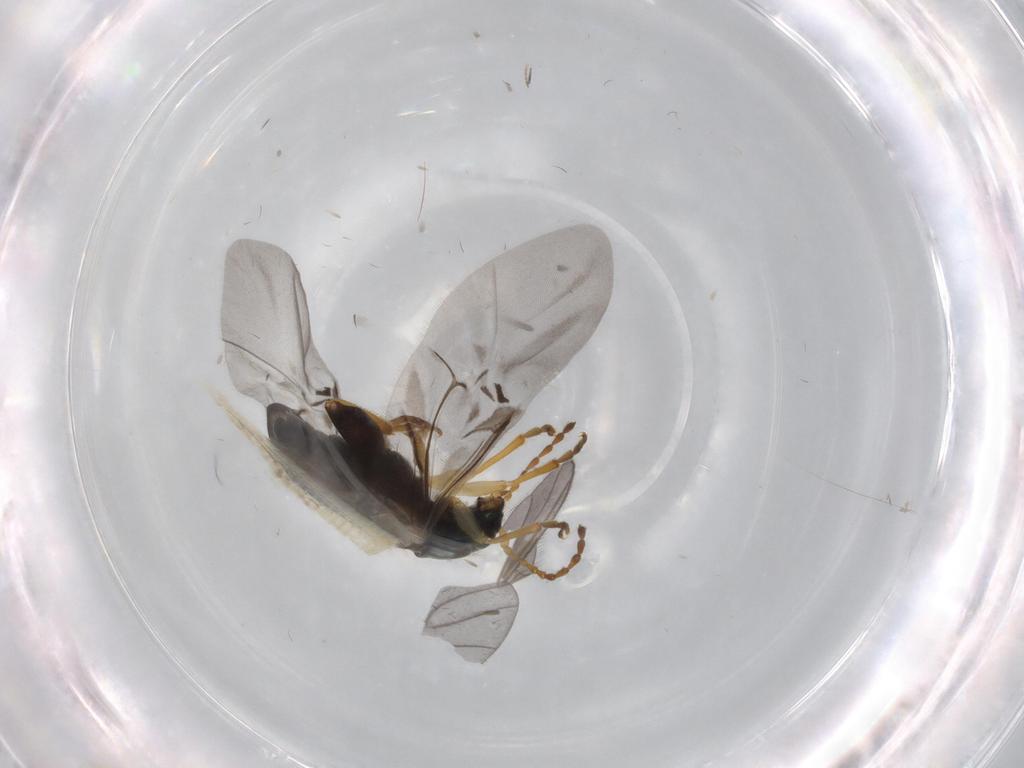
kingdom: Animalia
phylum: Arthropoda
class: Insecta
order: Coleoptera
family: Chrysomelidae
